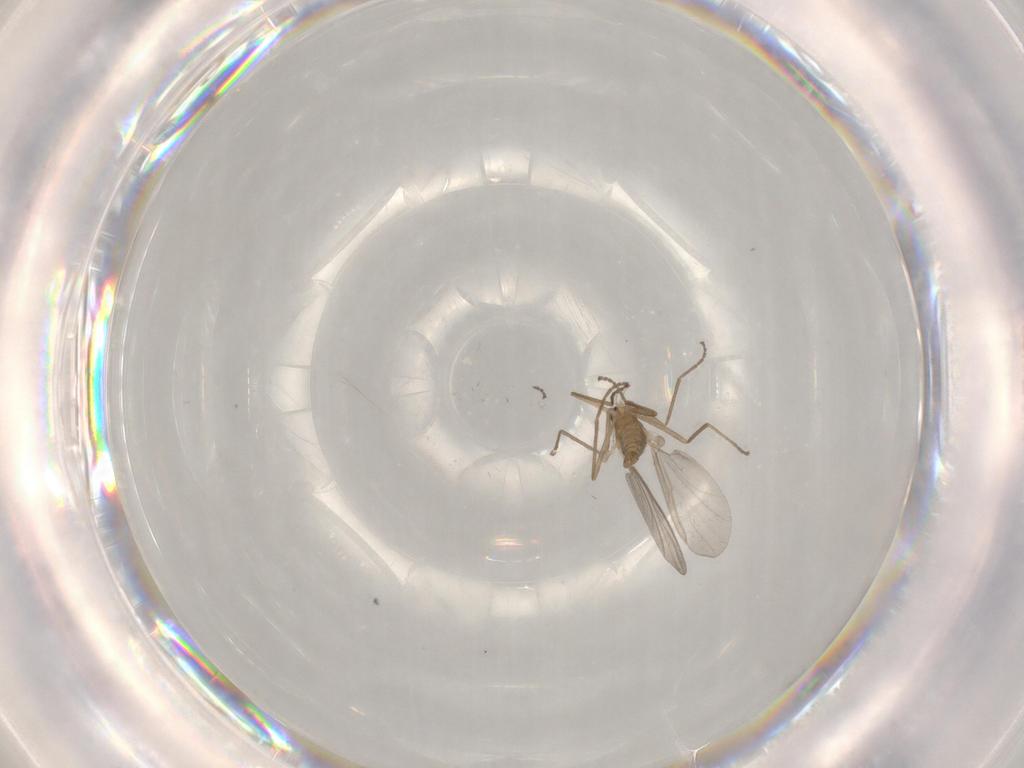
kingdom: Animalia
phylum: Arthropoda
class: Insecta
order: Diptera
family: Cecidomyiidae
